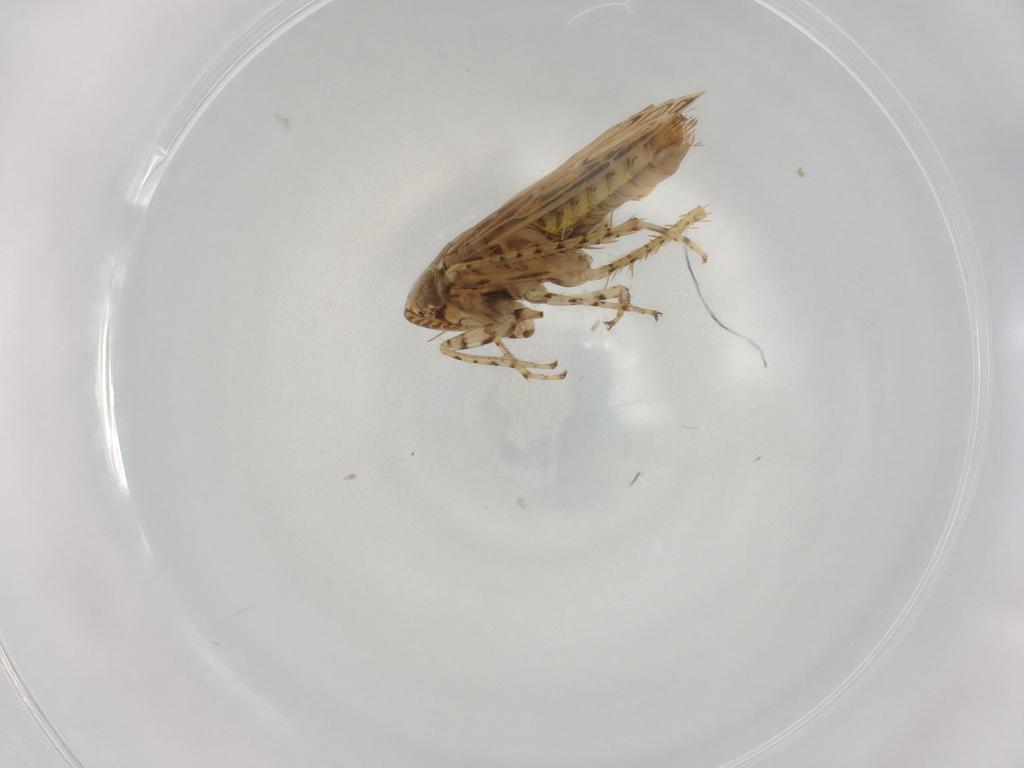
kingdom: Animalia
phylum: Arthropoda
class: Insecta
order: Hemiptera
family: Cicadellidae
